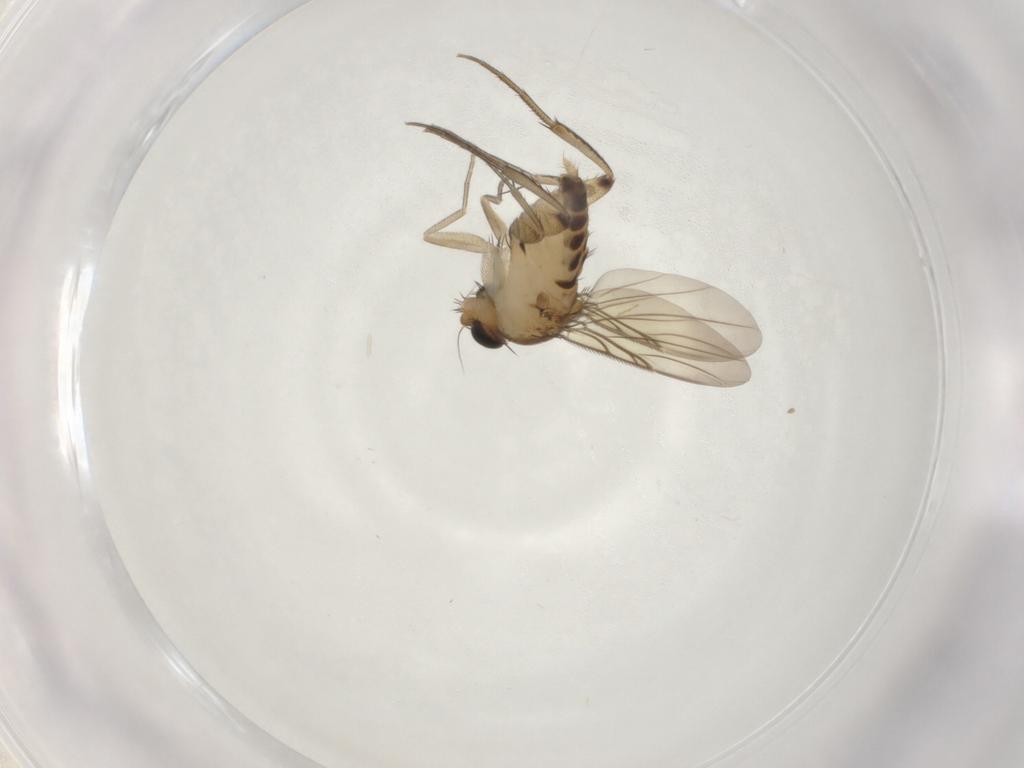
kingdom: Animalia
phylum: Arthropoda
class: Insecta
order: Diptera
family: Phoridae
